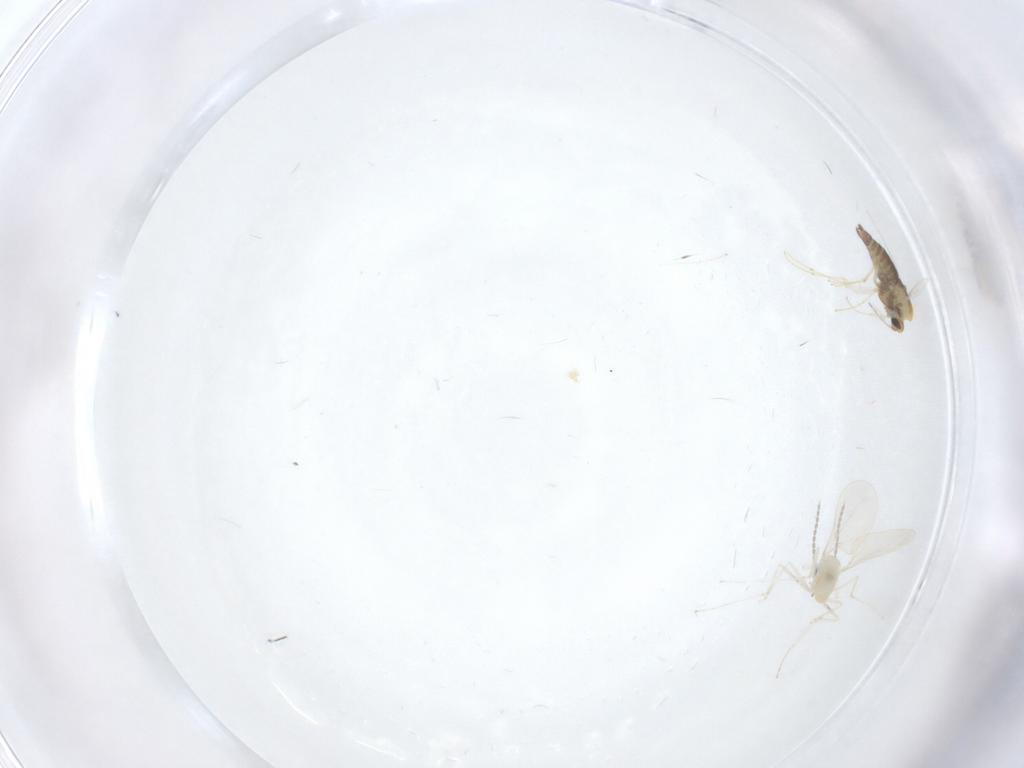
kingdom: Animalia
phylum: Arthropoda
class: Insecta
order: Diptera
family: Chironomidae
